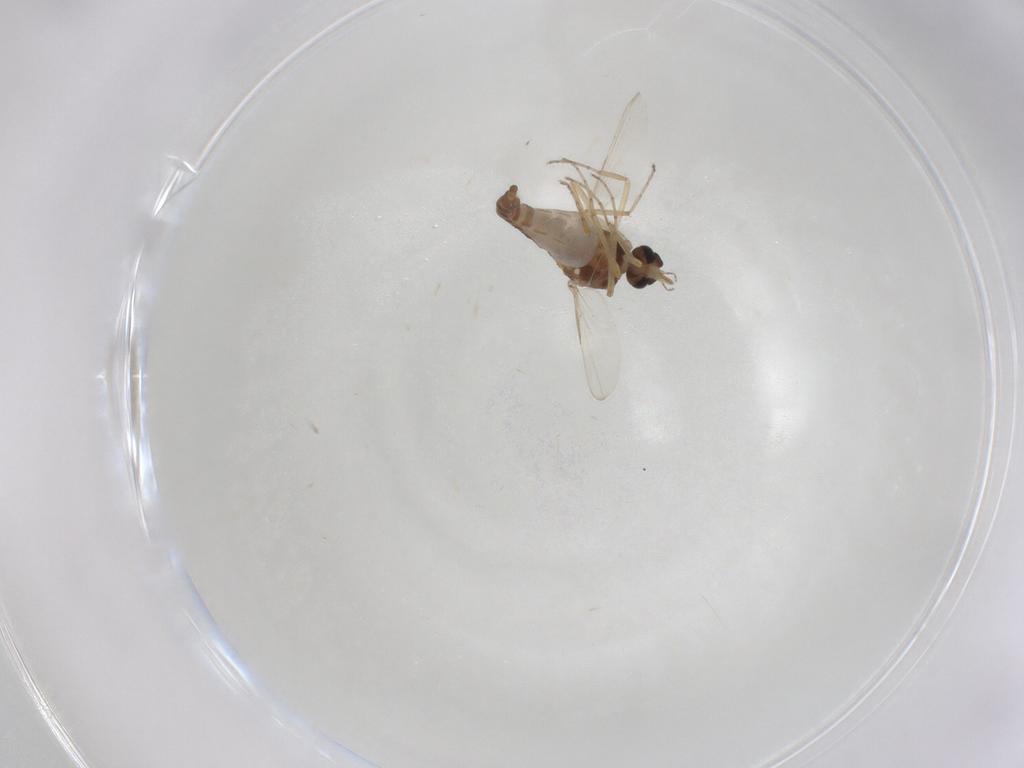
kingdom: Animalia
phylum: Arthropoda
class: Insecta
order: Diptera
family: Ceratopogonidae
